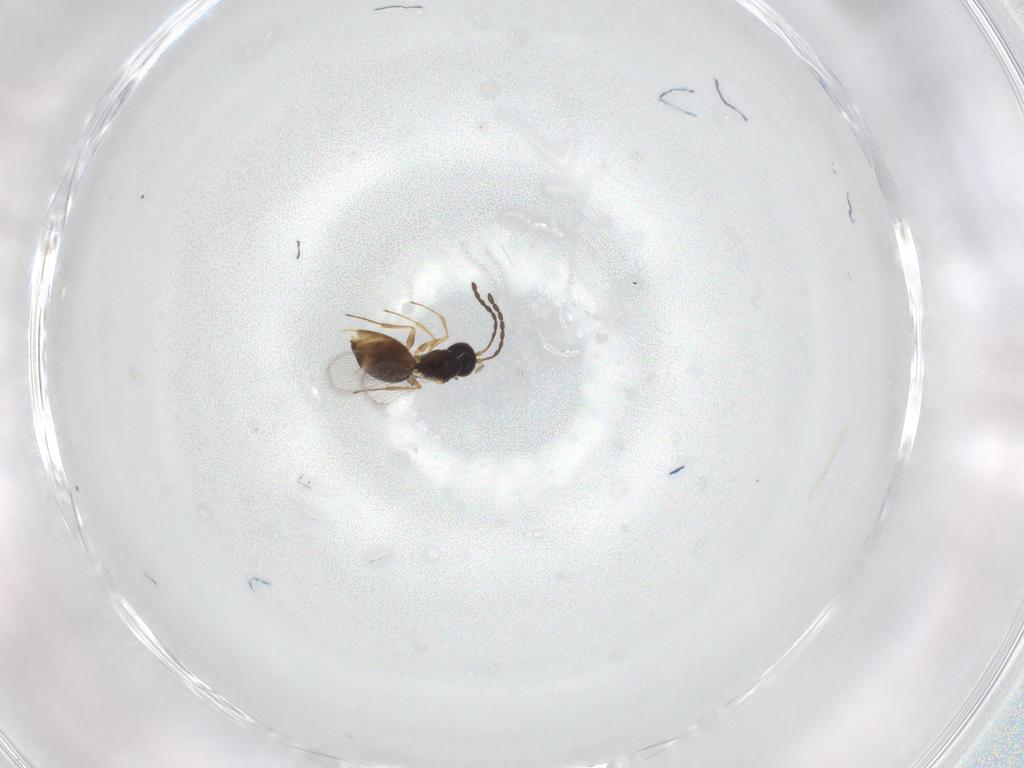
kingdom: Animalia
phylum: Arthropoda
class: Insecta
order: Hymenoptera
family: Figitidae
